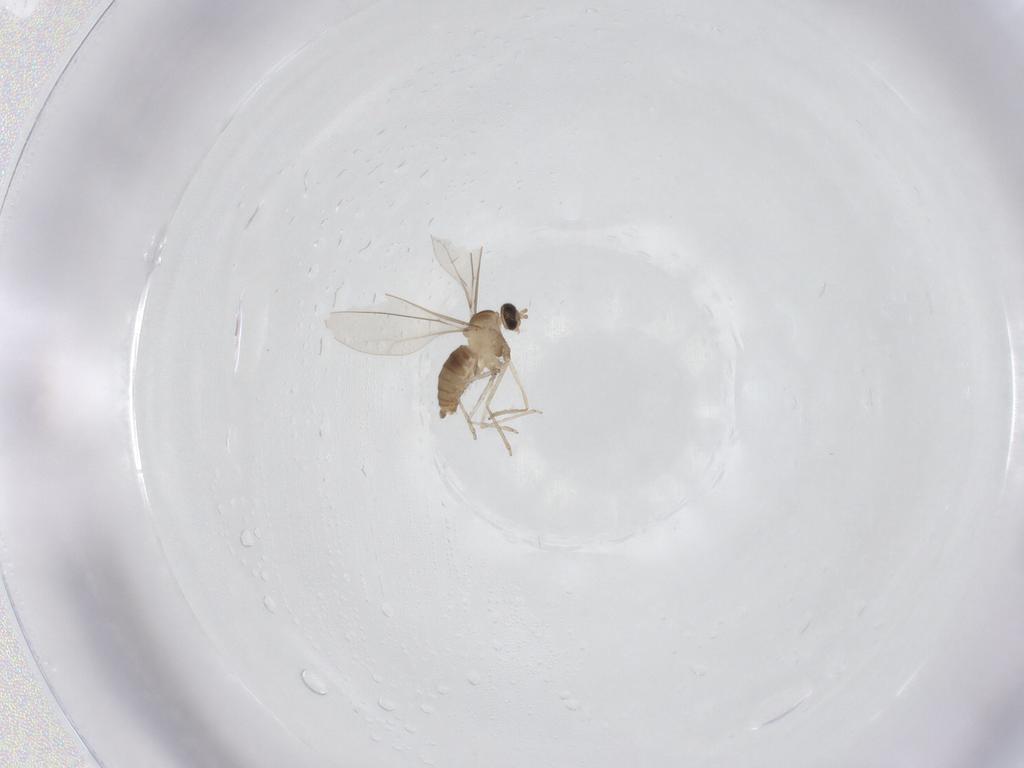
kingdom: Animalia
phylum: Arthropoda
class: Insecta
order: Diptera
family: Cecidomyiidae
